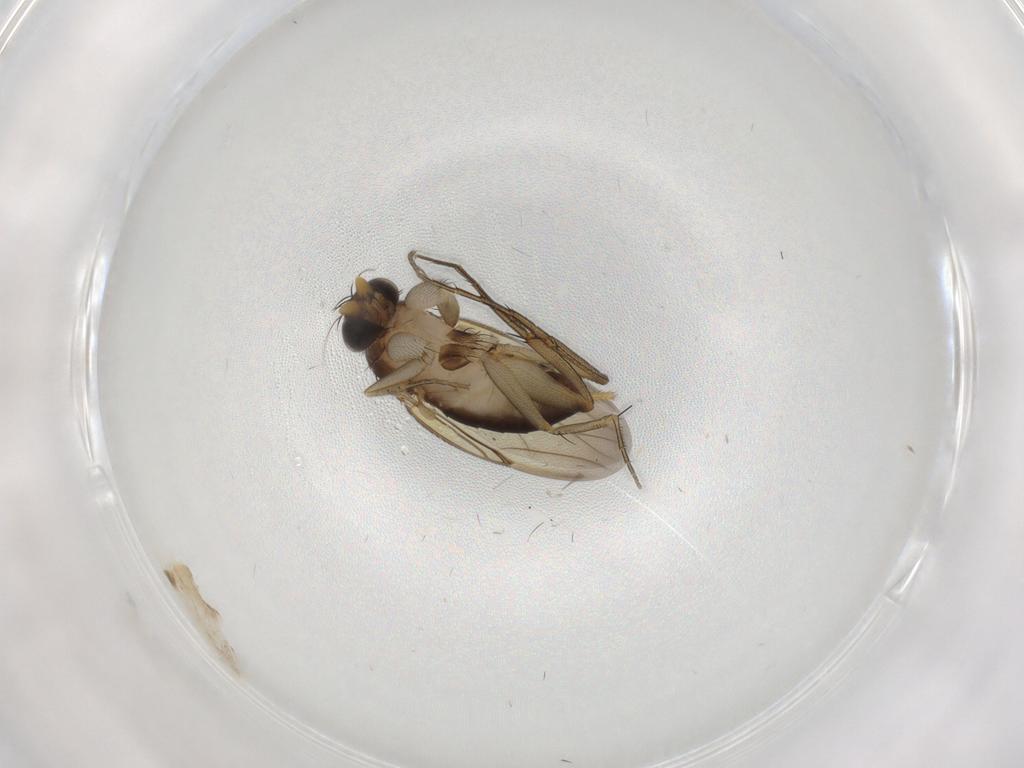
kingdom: Animalia
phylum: Arthropoda
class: Insecta
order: Diptera
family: Phoridae
